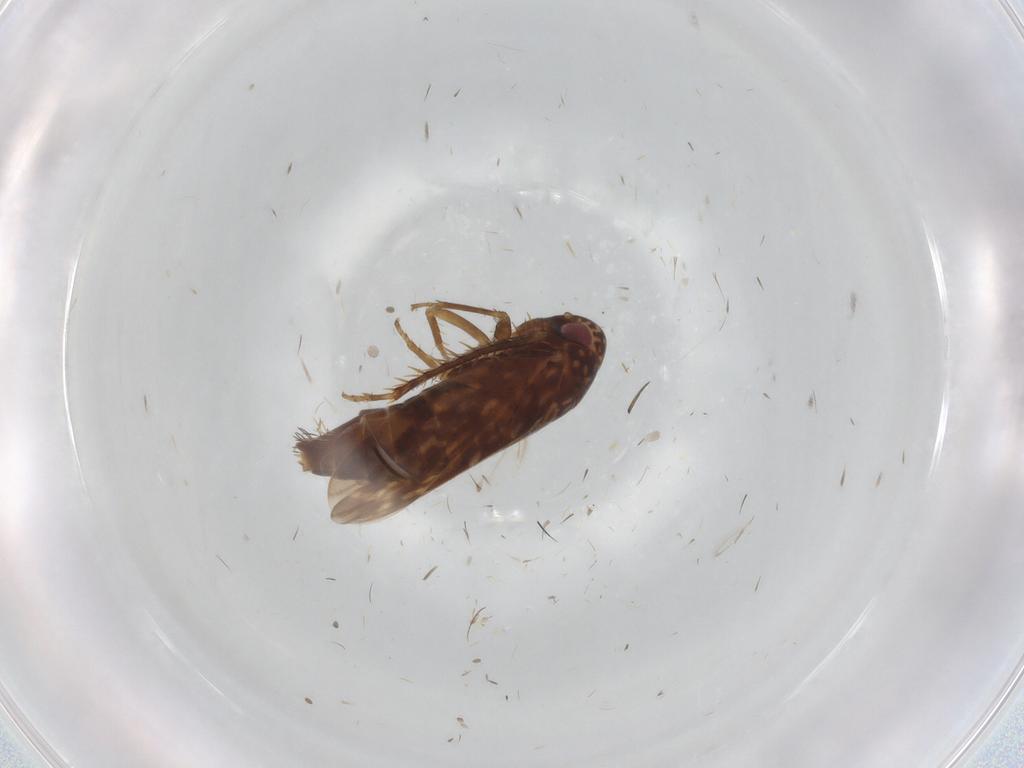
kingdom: Animalia
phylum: Arthropoda
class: Insecta
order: Hemiptera
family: Cicadellidae
